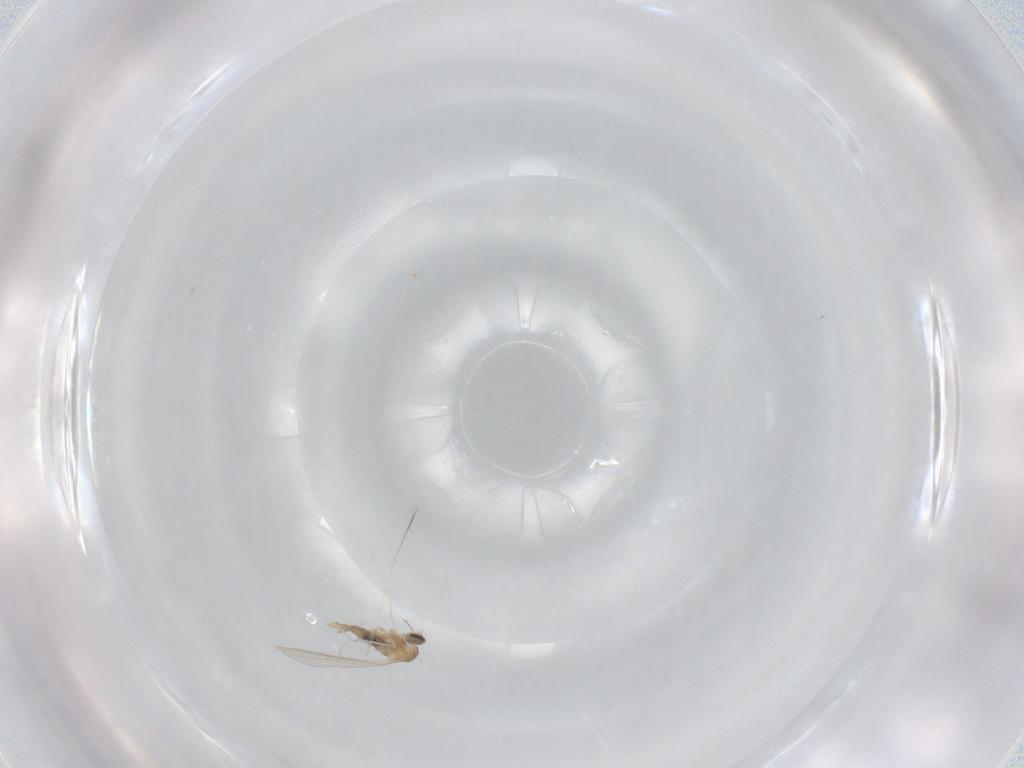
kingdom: Animalia
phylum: Arthropoda
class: Insecta
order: Diptera
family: Cecidomyiidae
